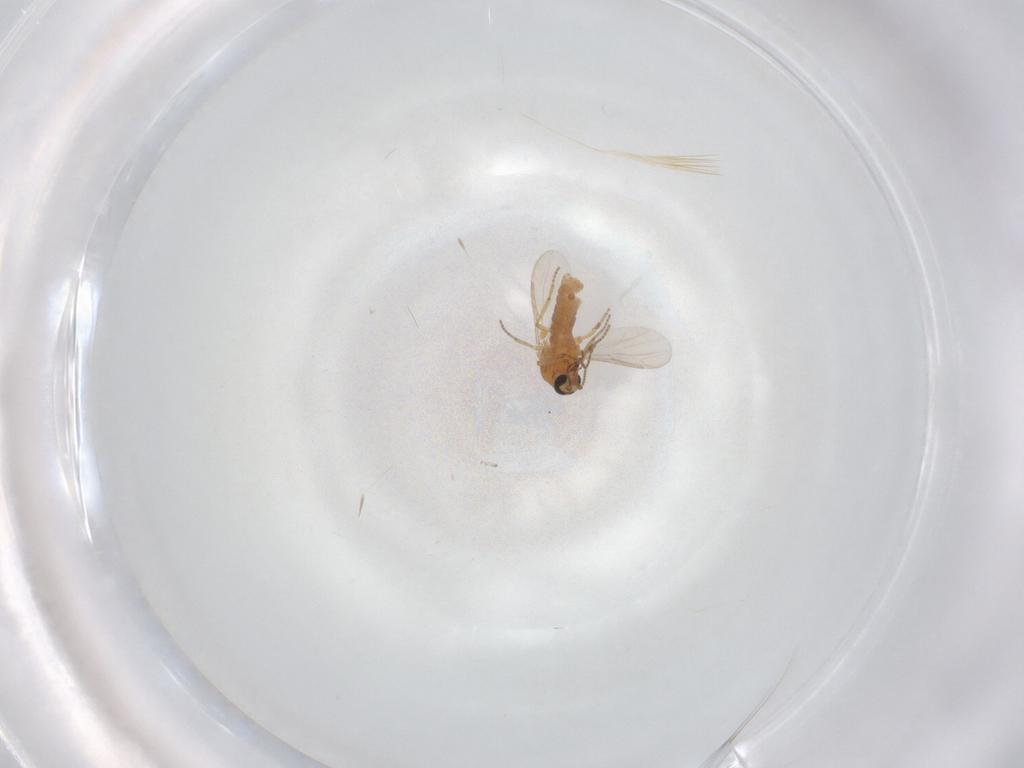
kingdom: Animalia
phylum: Arthropoda
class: Insecta
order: Diptera
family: Ceratopogonidae
